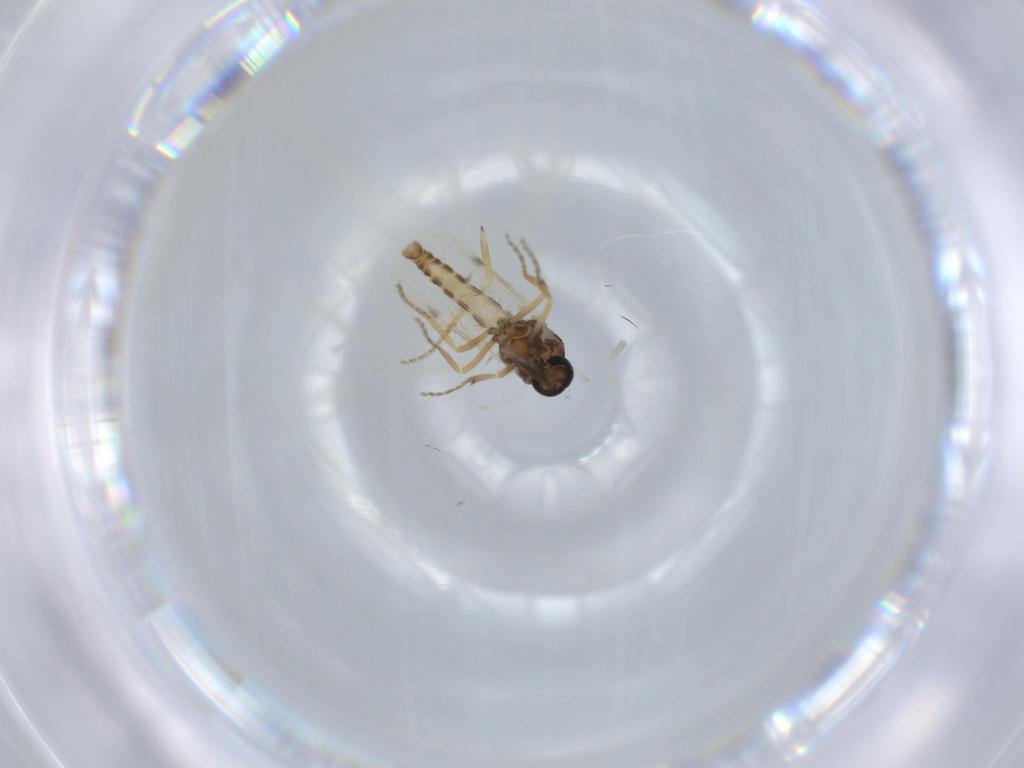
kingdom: Animalia
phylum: Arthropoda
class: Insecta
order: Diptera
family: Ceratopogonidae
